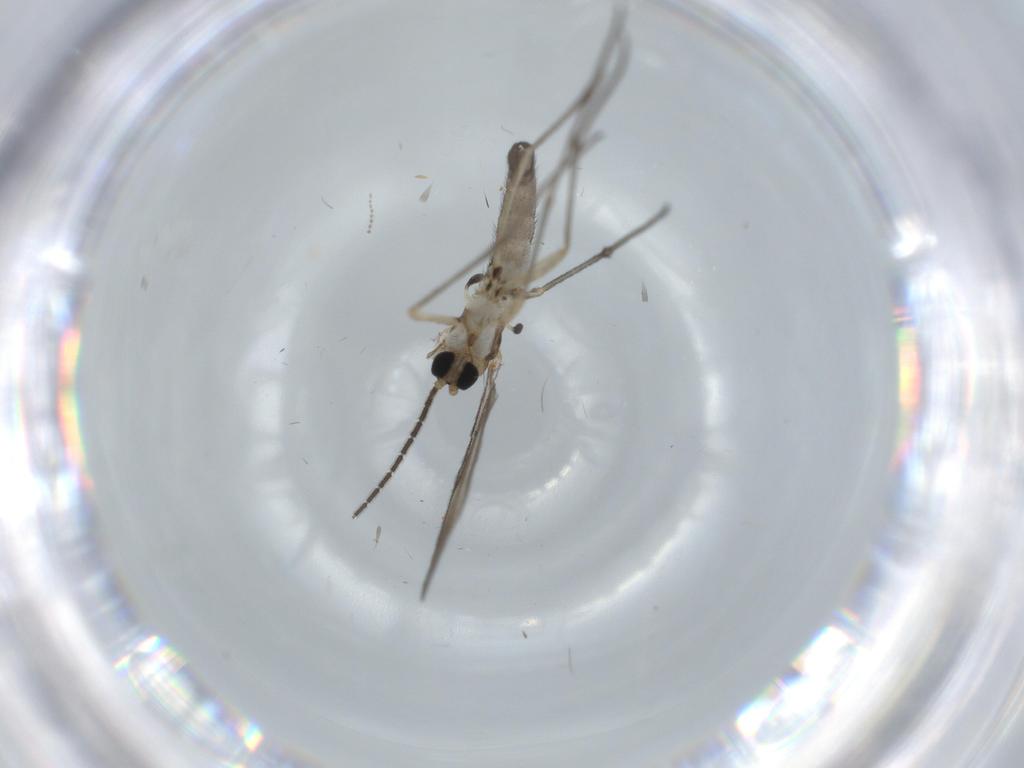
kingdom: Animalia
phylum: Arthropoda
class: Insecta
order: Diptera
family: Sciaridae
